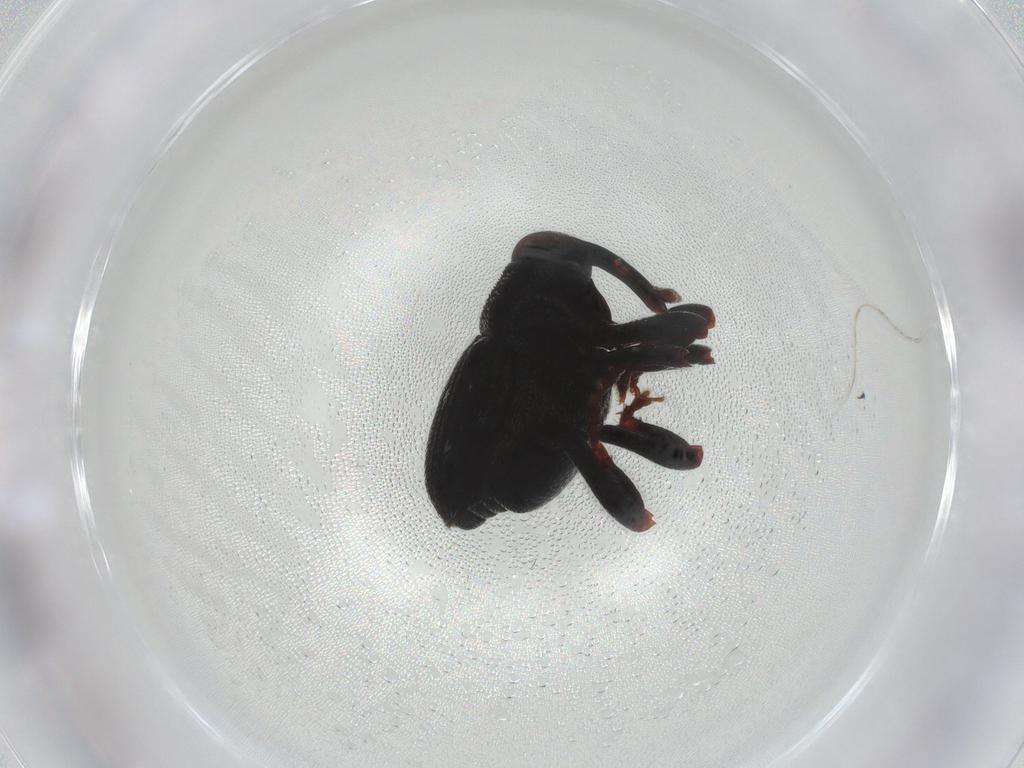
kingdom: Animalia
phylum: Arthropoda
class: Insecta
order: Coleoptera
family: Curculionidae
